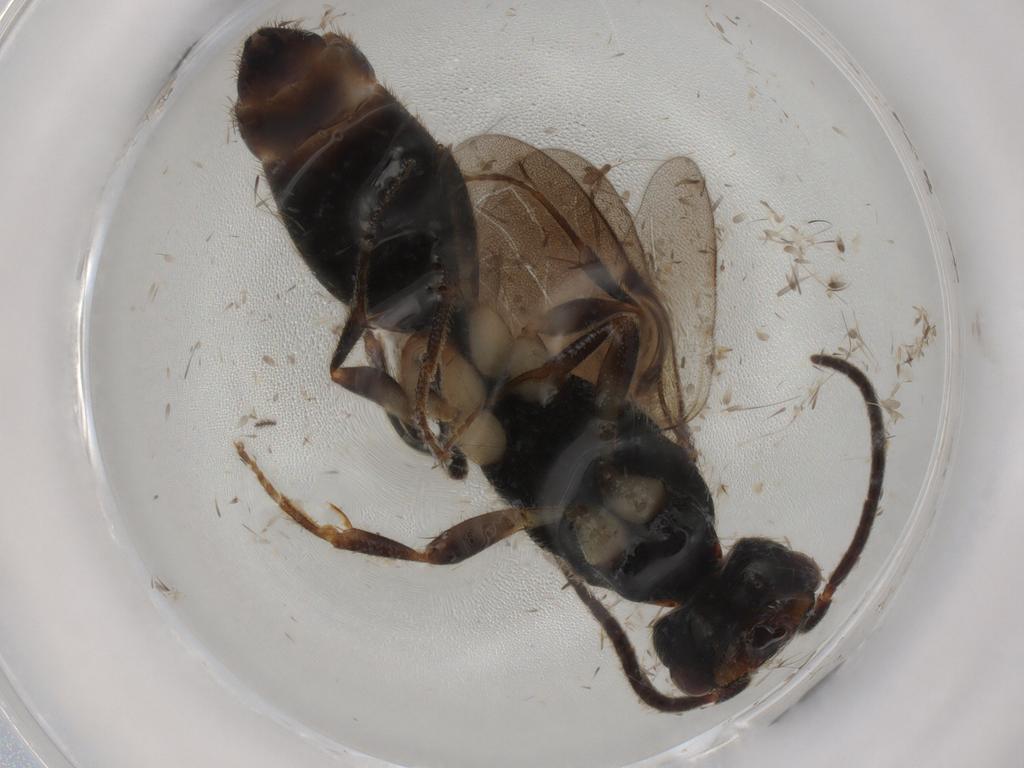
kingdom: Animalia
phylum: Arthropoda
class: Insecta
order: Hymenoptera
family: Bethylidae
